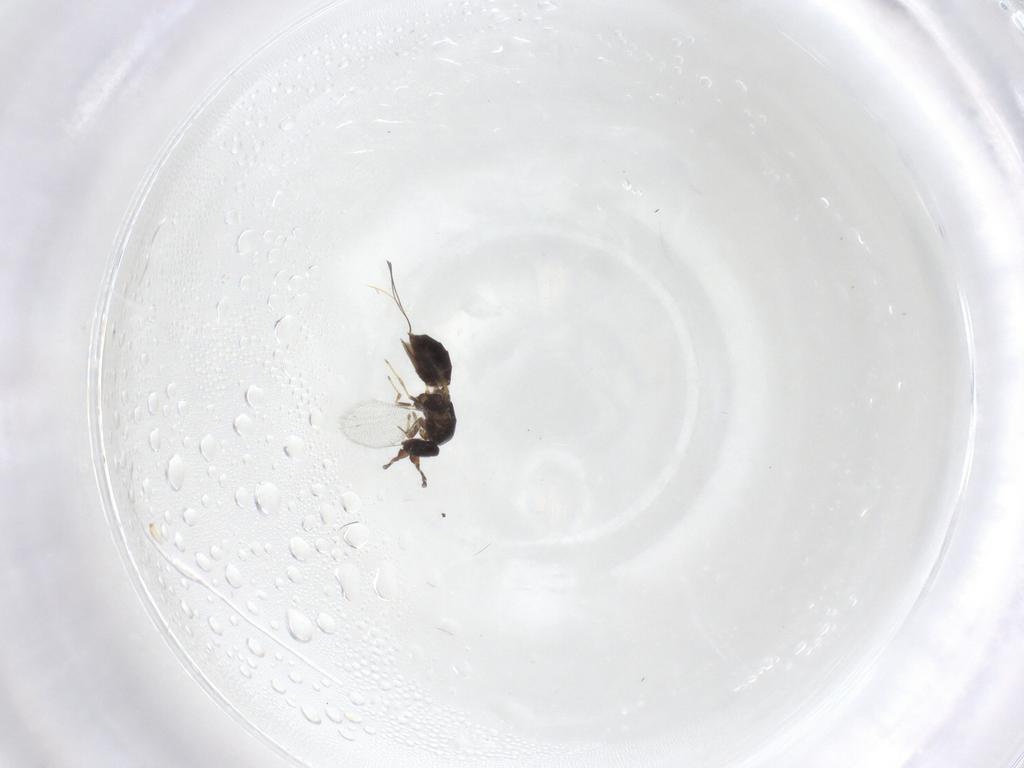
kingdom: Animalia
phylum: Arthropoda
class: Insecta
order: Hymenoptera
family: Agaonidae
